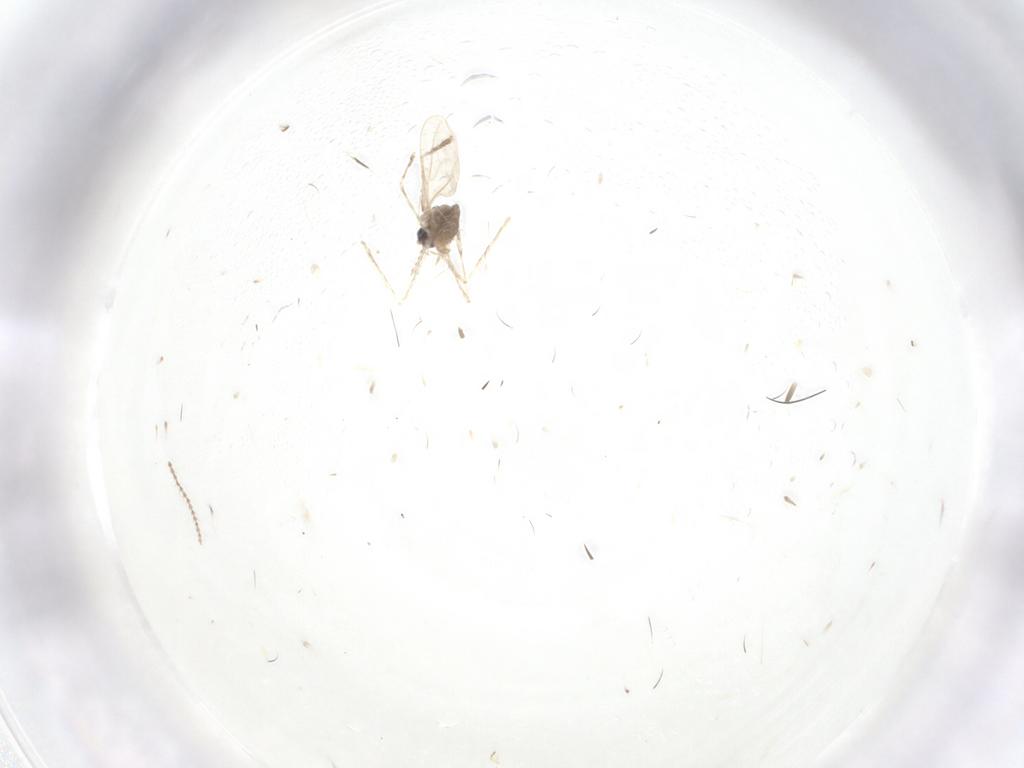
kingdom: Animalia
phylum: Arthropoda
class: Insecta
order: Diptera
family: Cecidomyiidae
